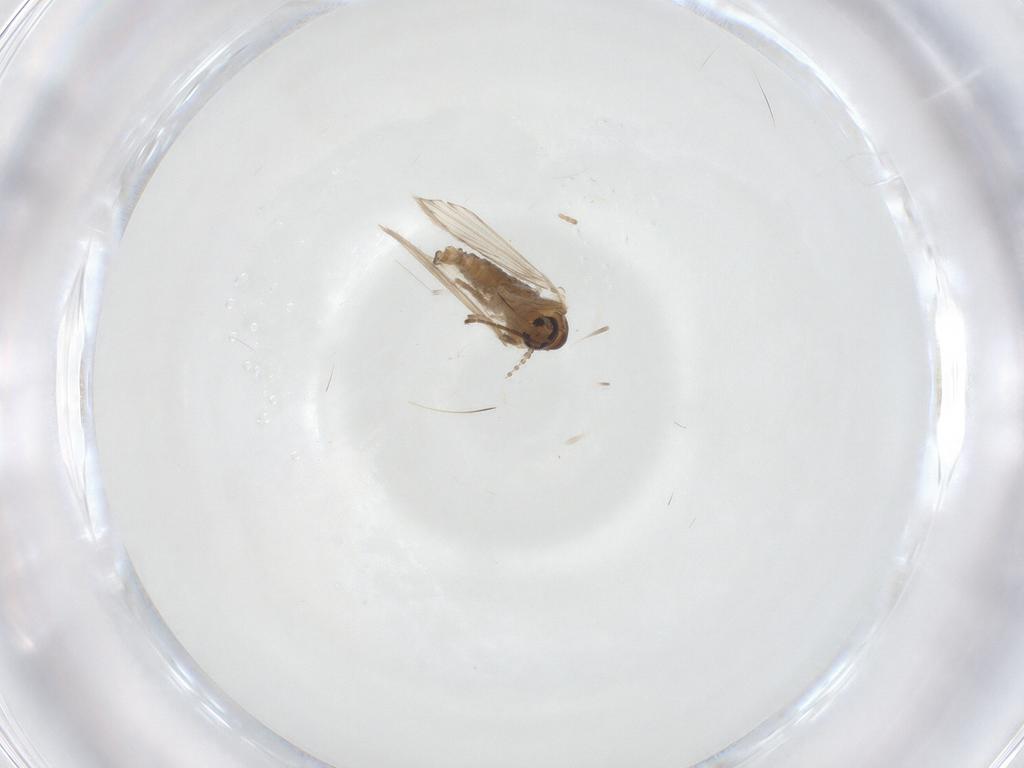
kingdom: Animalia
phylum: Arthropoda
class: Insecta
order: Diptera
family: Psychodidae
